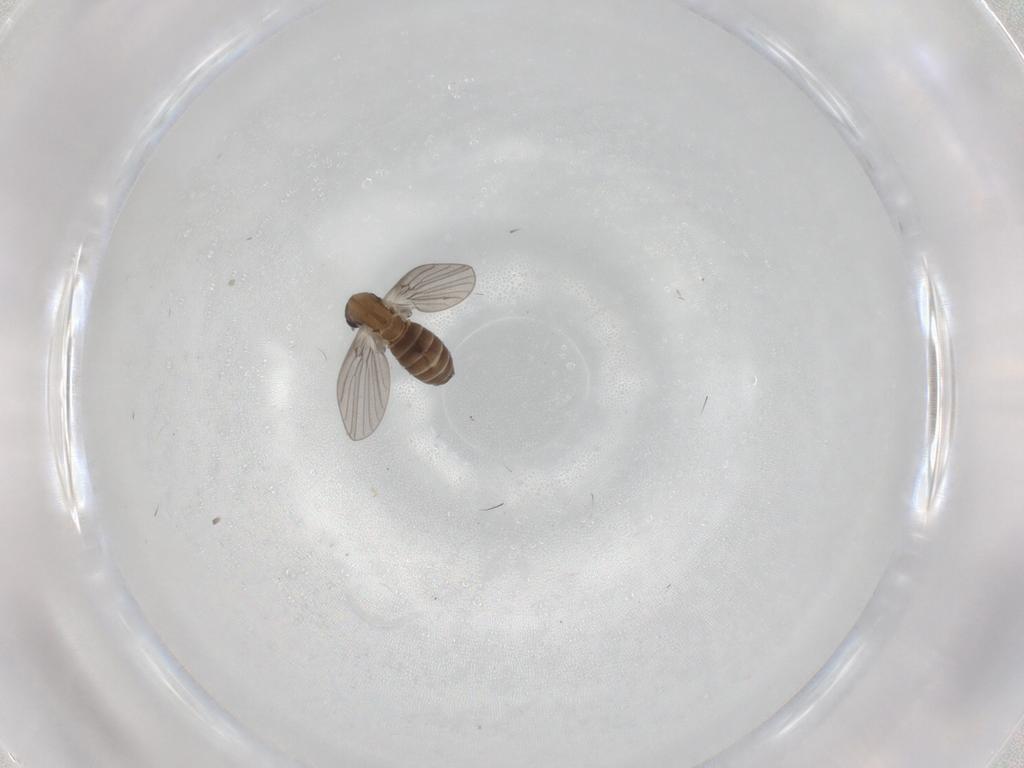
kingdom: Animalia
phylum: Arthropoda
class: Insecta
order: Diptera
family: Psychodidae
